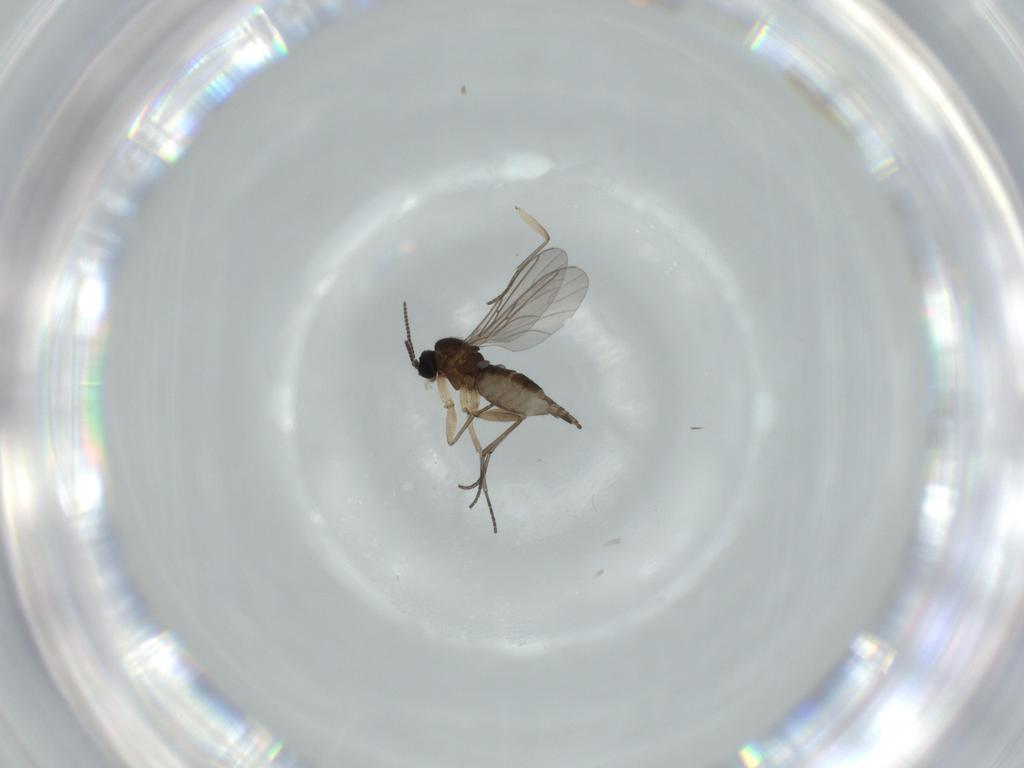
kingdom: Animalia
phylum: Arthropoda
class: Insecta
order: Diptera
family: Sciaridae
